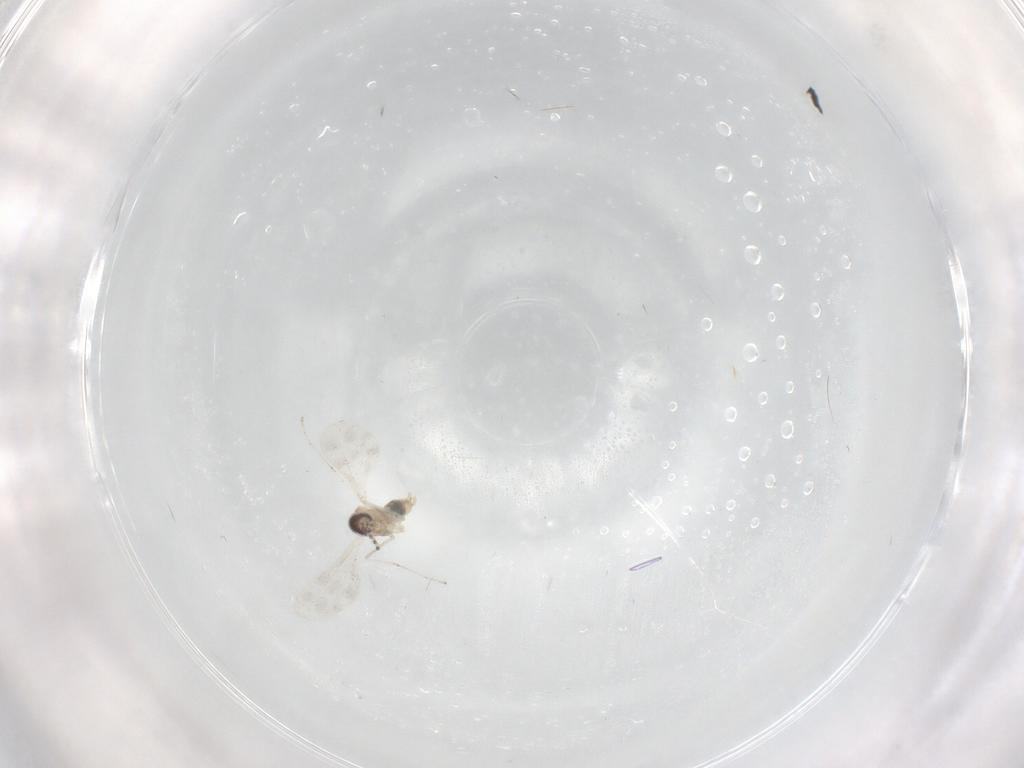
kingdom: Animalia
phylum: Arthropoda
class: Insecta
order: Diptera
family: Cecidomyiidae
